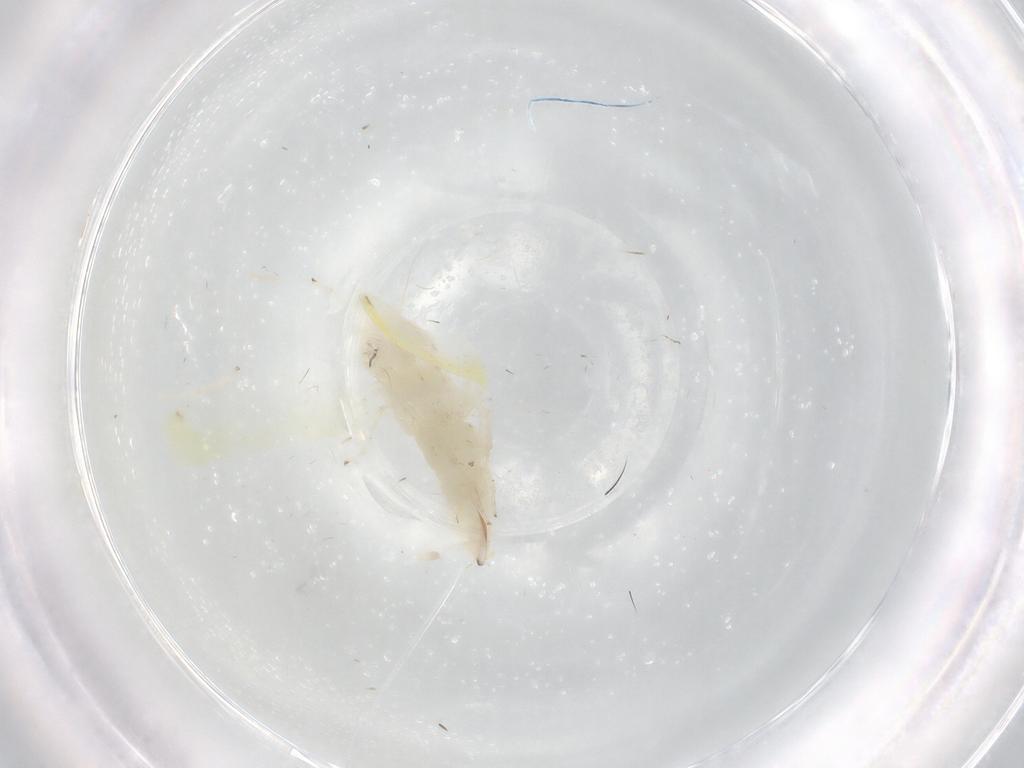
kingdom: Animalia
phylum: Arthropoda
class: Insecta
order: Hemiptera
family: Cicadellidae
